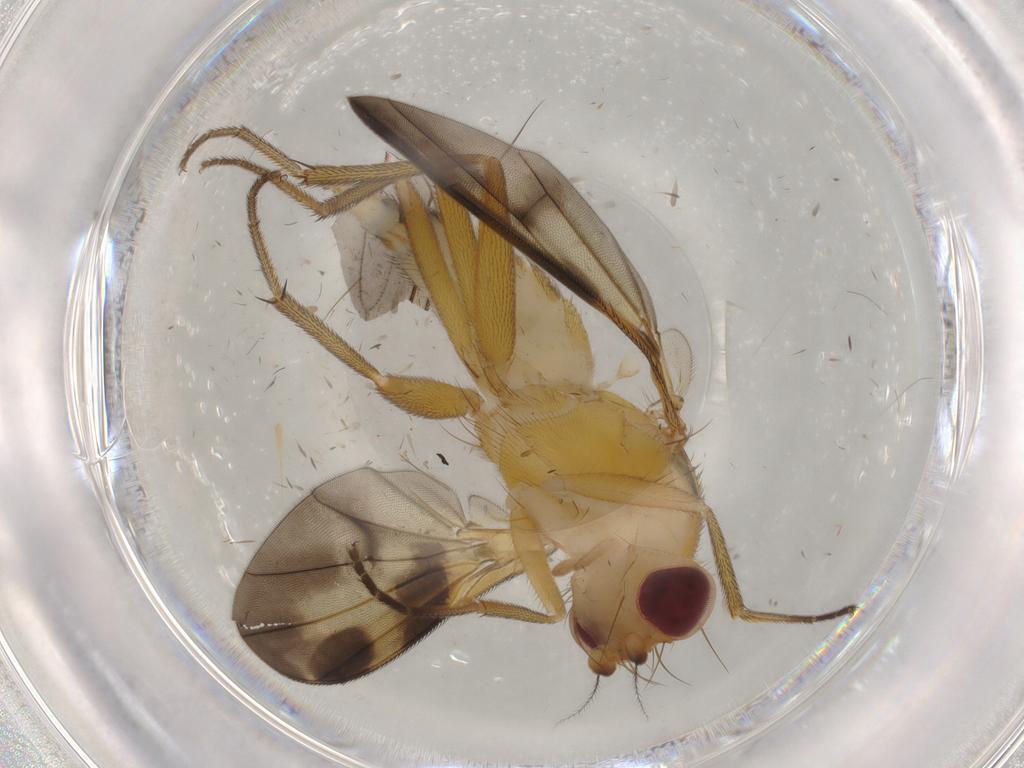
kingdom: Animalia
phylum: Arthropoda
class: Insecta
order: Diptera
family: Clusiidae
